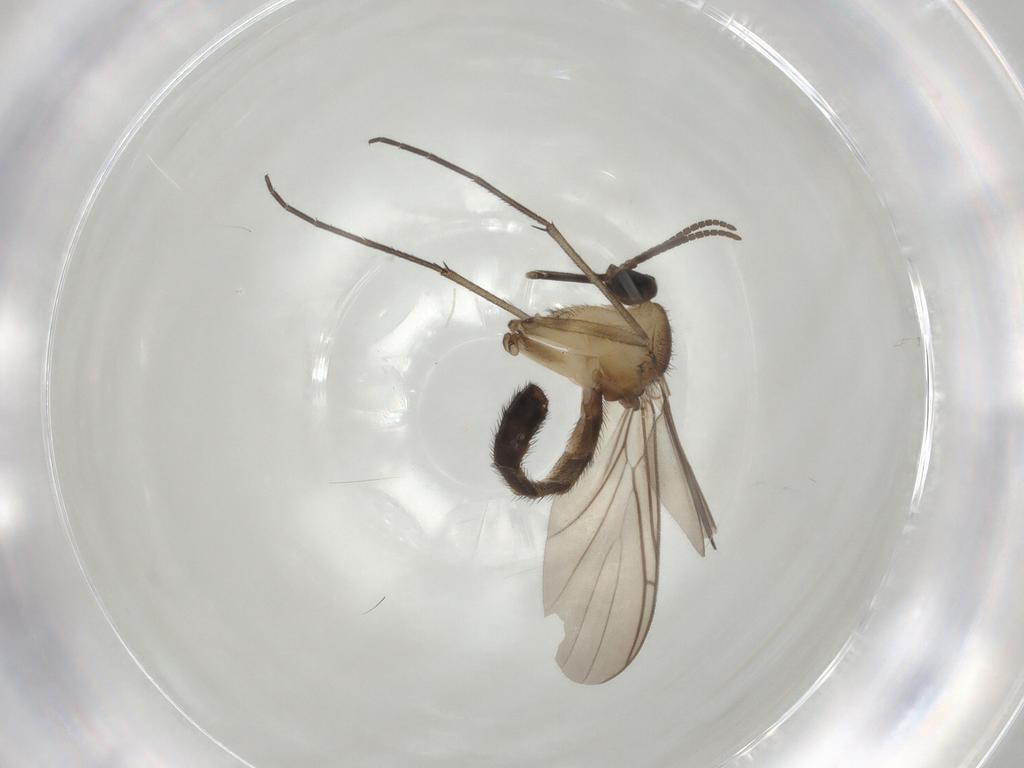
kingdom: Animalia
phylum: Arthropoda
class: Insecta
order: Diptera
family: Keroplatidae
